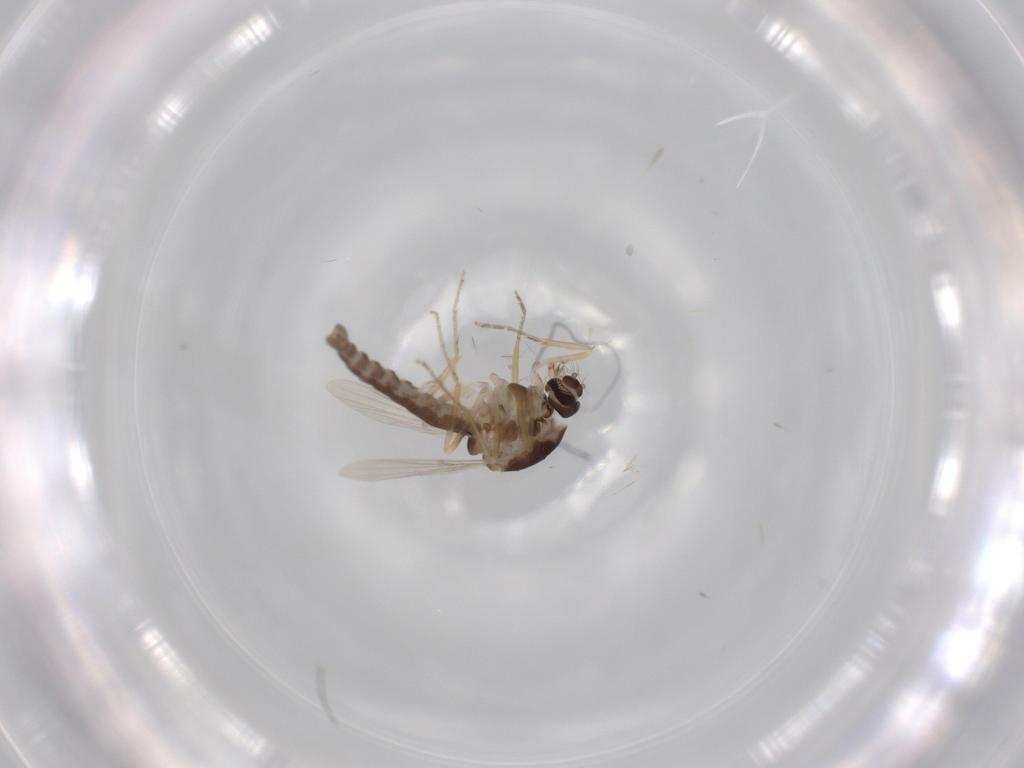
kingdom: Animalia
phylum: Arthropoda
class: Insecta
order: Diptera
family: Ceratopogonidae
